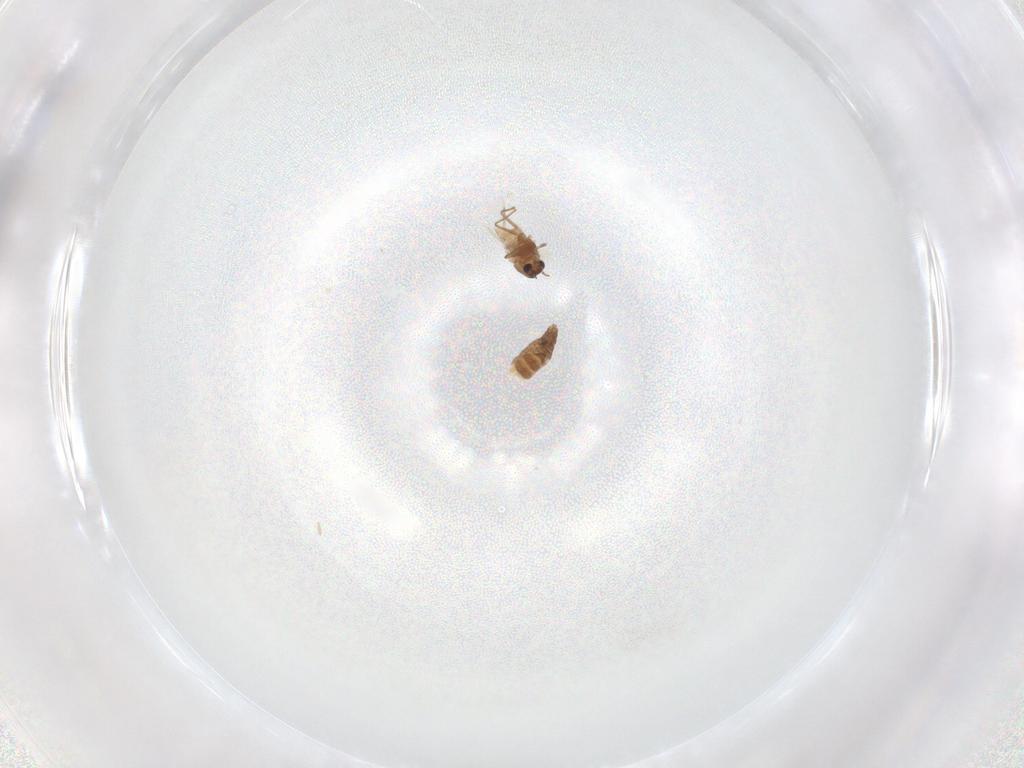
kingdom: Animalia
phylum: Arthropoda
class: Insecta
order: Diptera
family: Chironomidae
